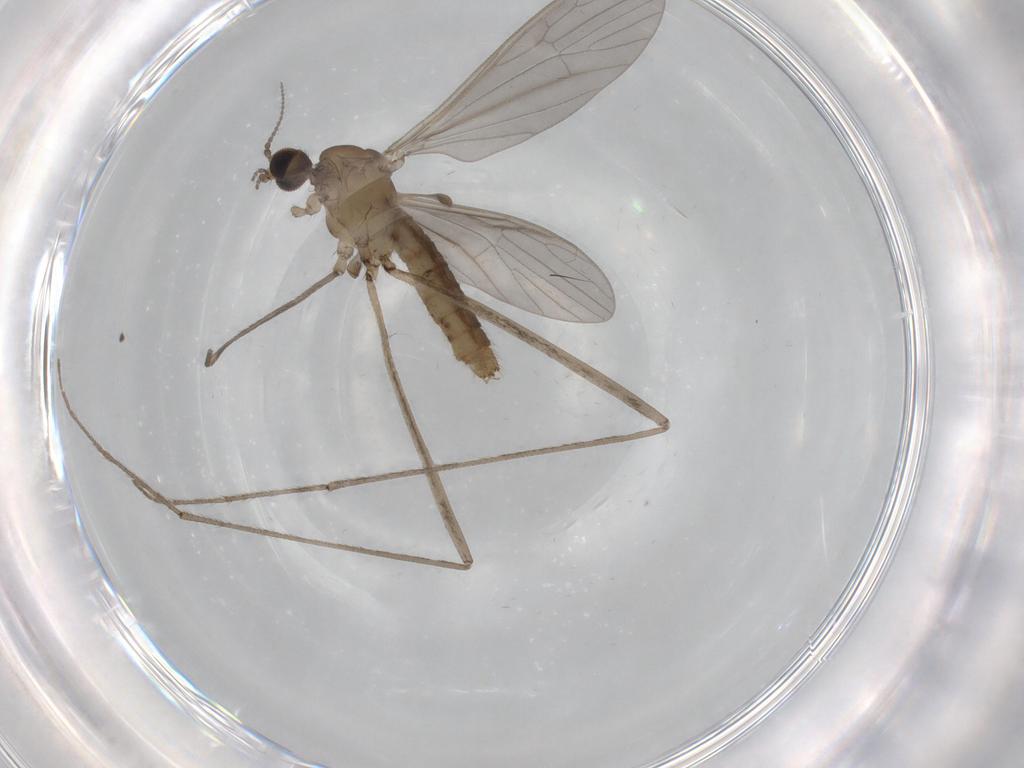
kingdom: Animalia
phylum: Arthropoda
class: Insecta
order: Diptera
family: Limoniidae
